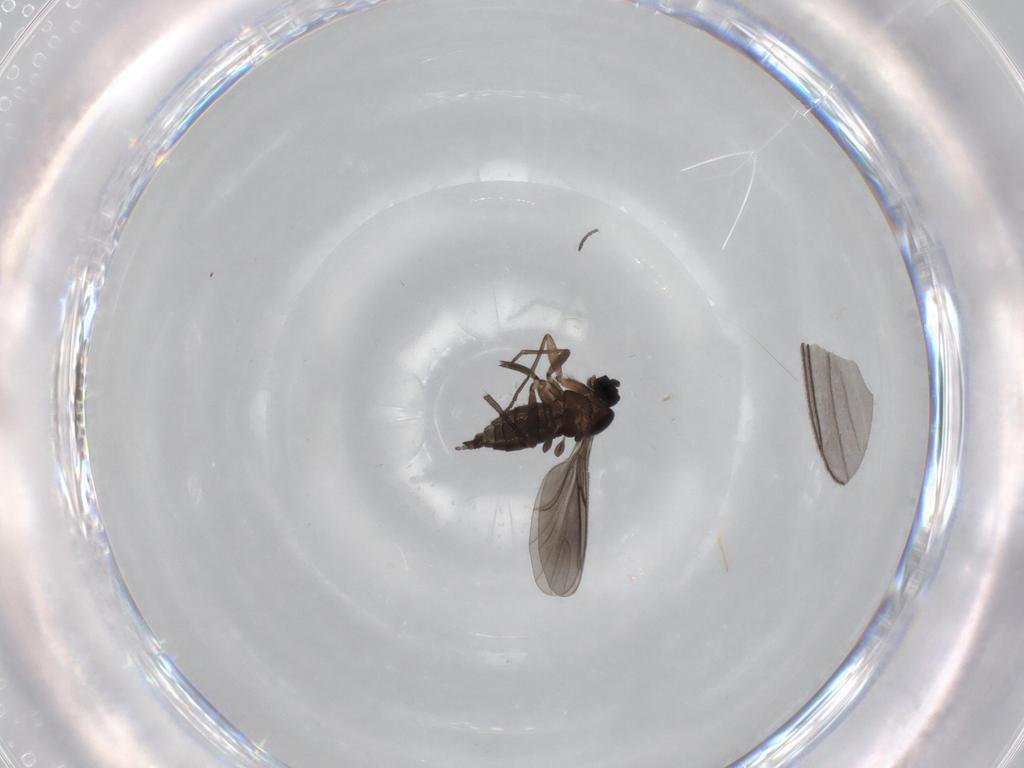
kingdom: Animalia
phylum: Arthropoda
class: Insecta
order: Diptera
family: Sciaridae
